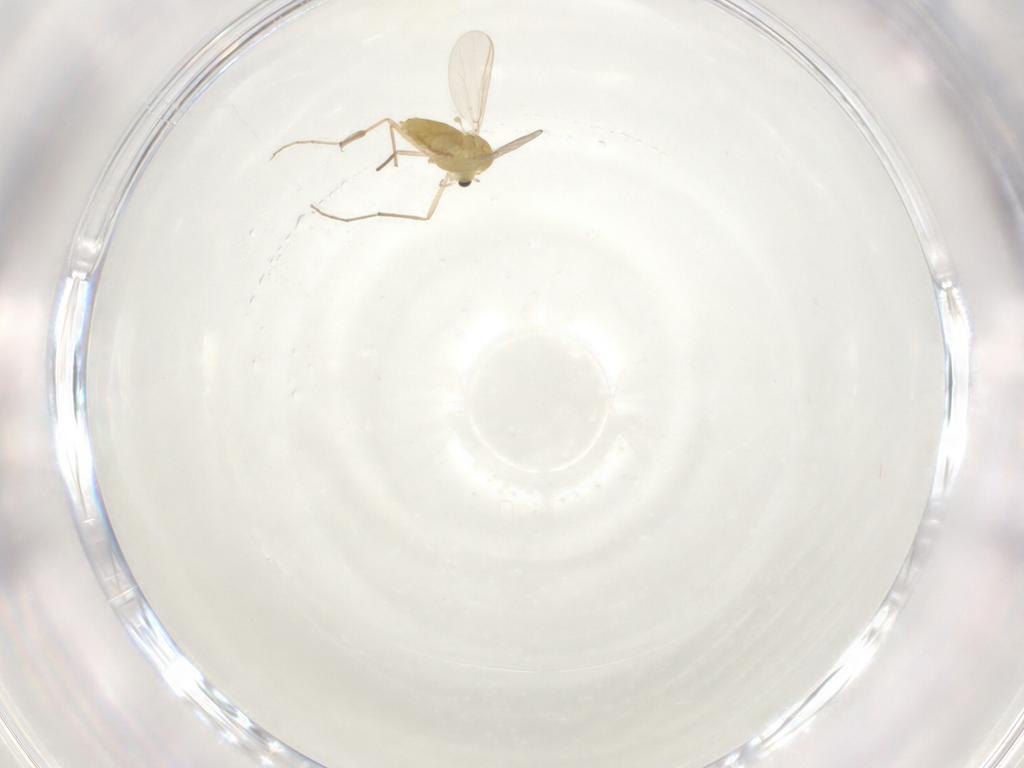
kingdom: Animalia
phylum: Arthropoda
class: Insecta
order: Diptera
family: Chironomidae
